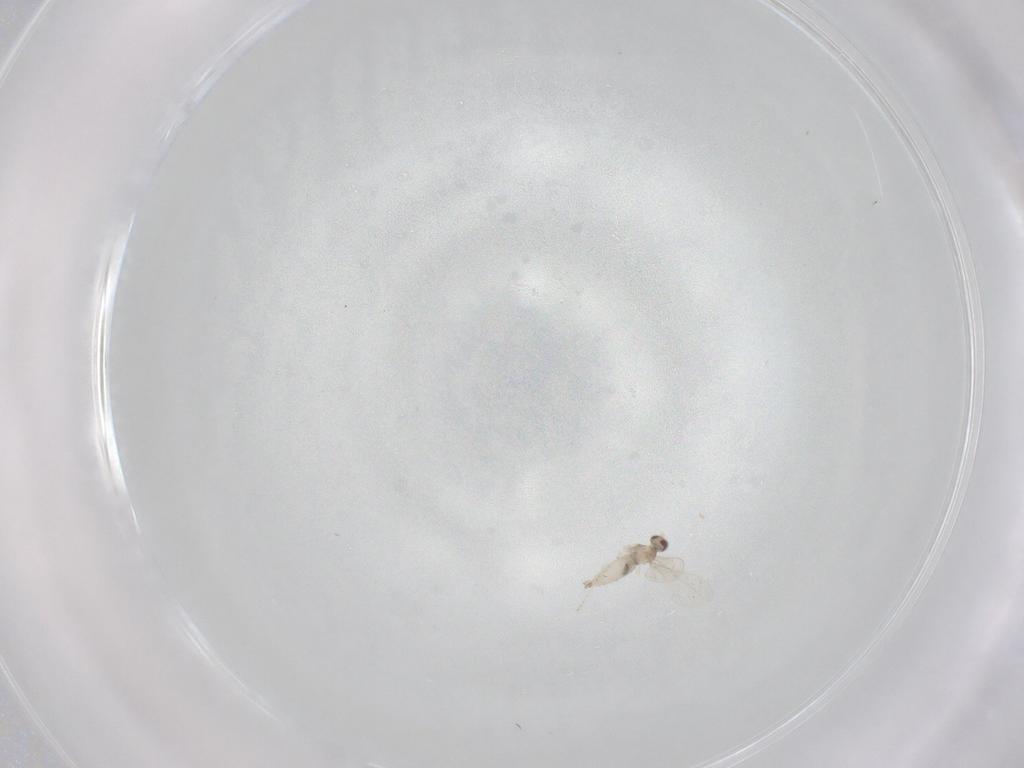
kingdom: Animalia
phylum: Arthropoda
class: Insecta
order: Diptera
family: Cecidomyiidae
